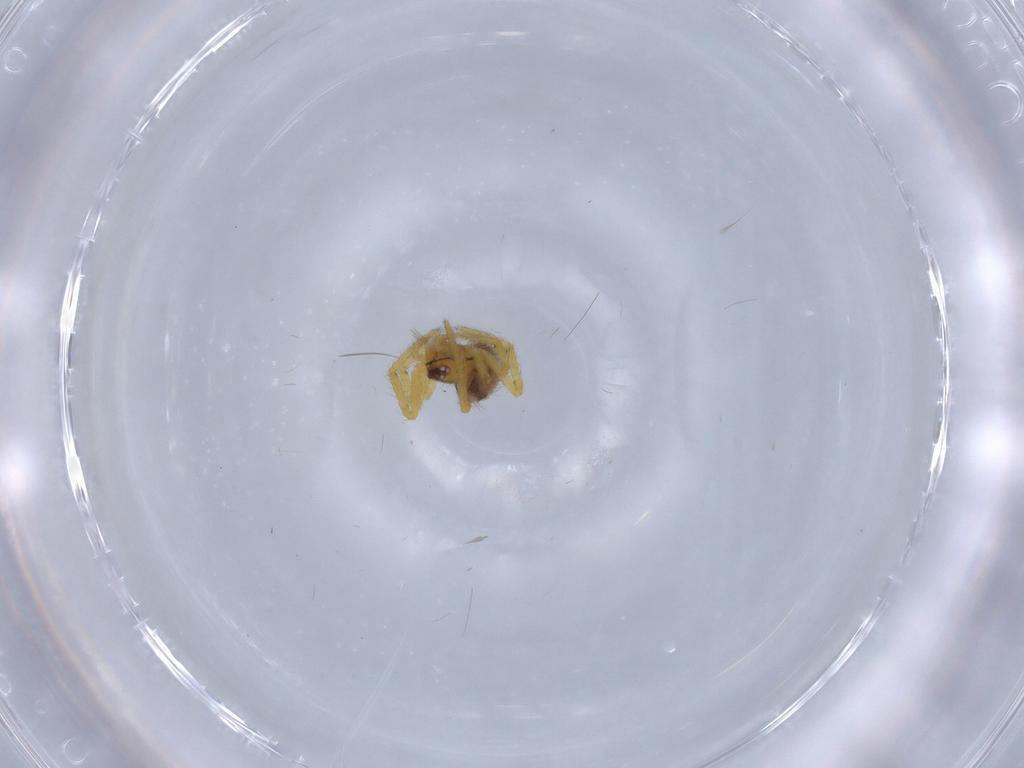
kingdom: Animalia
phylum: Arthropoda
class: Arachnida
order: Araneae
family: Theridiidae
